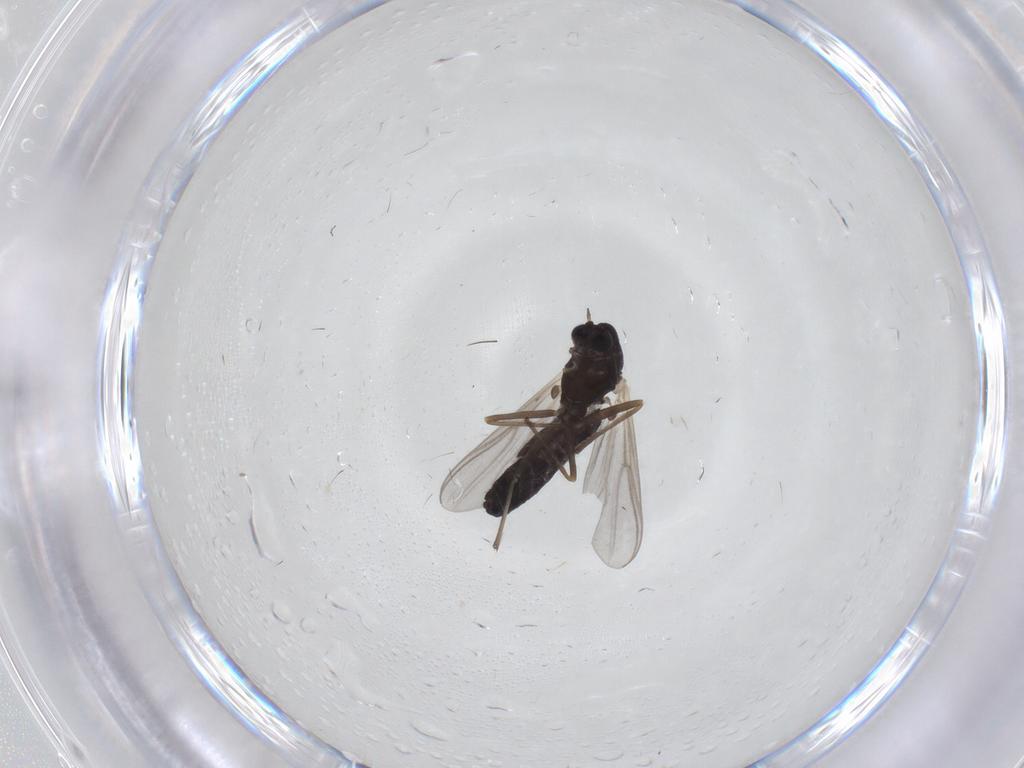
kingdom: Animalia
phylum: Arthropoda
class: Insecta
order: Diptera
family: Chironomidae
